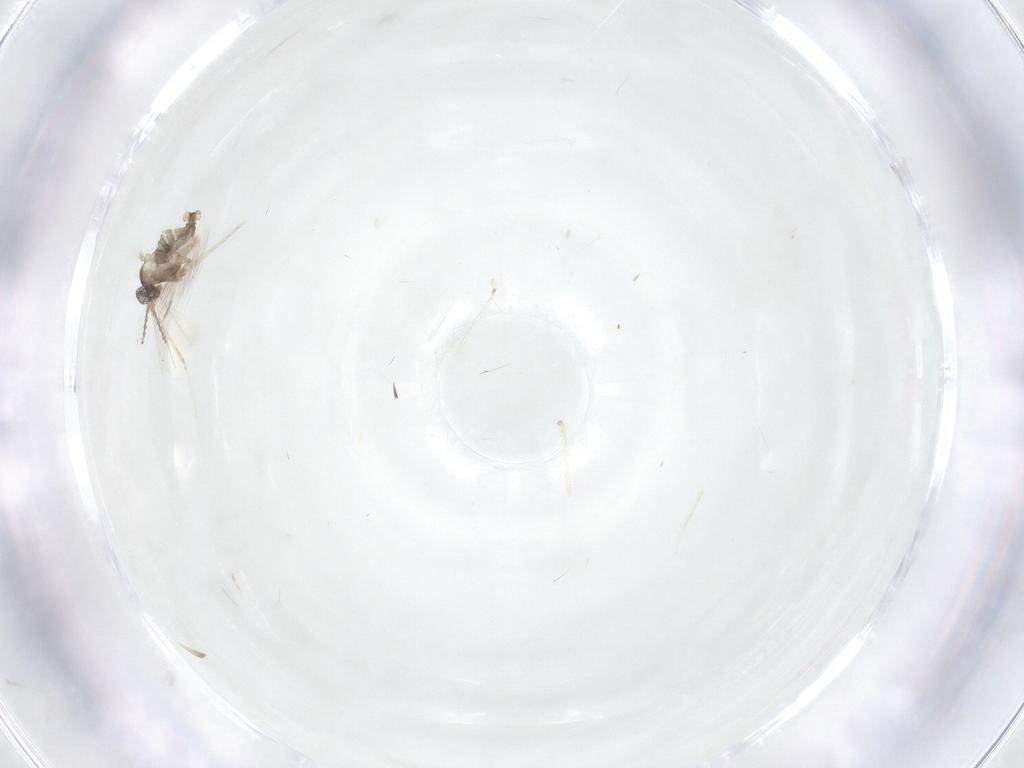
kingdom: Animalia
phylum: Arthropoda
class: Insecta
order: Diptera
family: Cecidomyiidae
